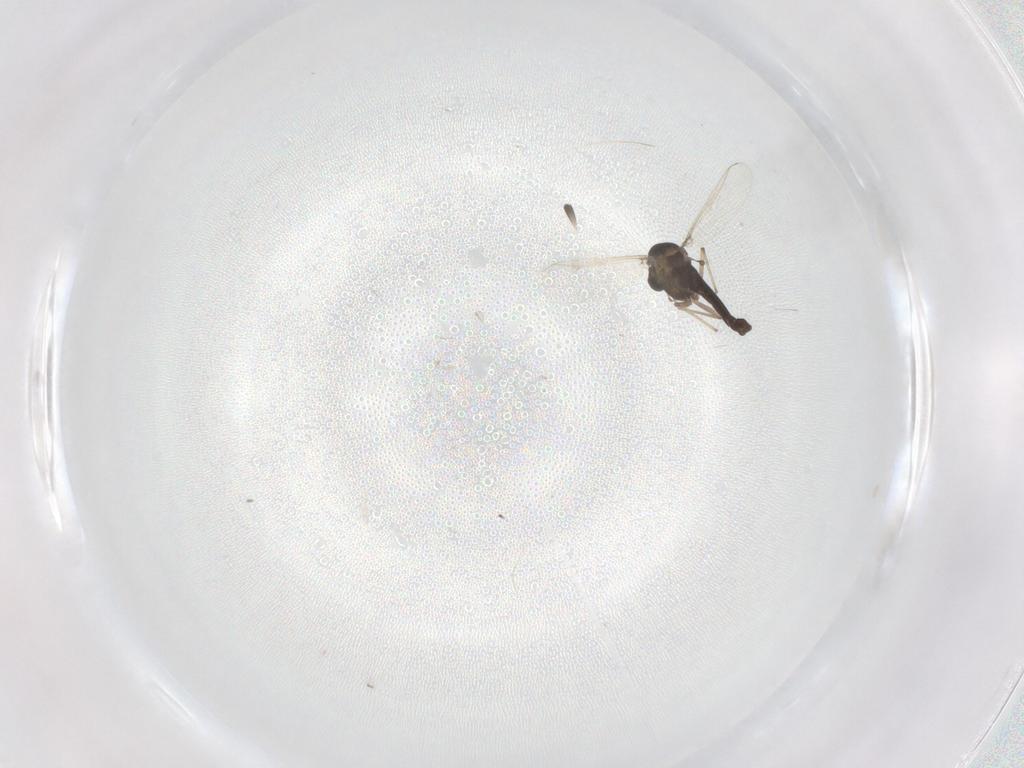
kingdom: Animalia
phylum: Arthropoda
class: Insecta
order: Diptera
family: Chironomidae
